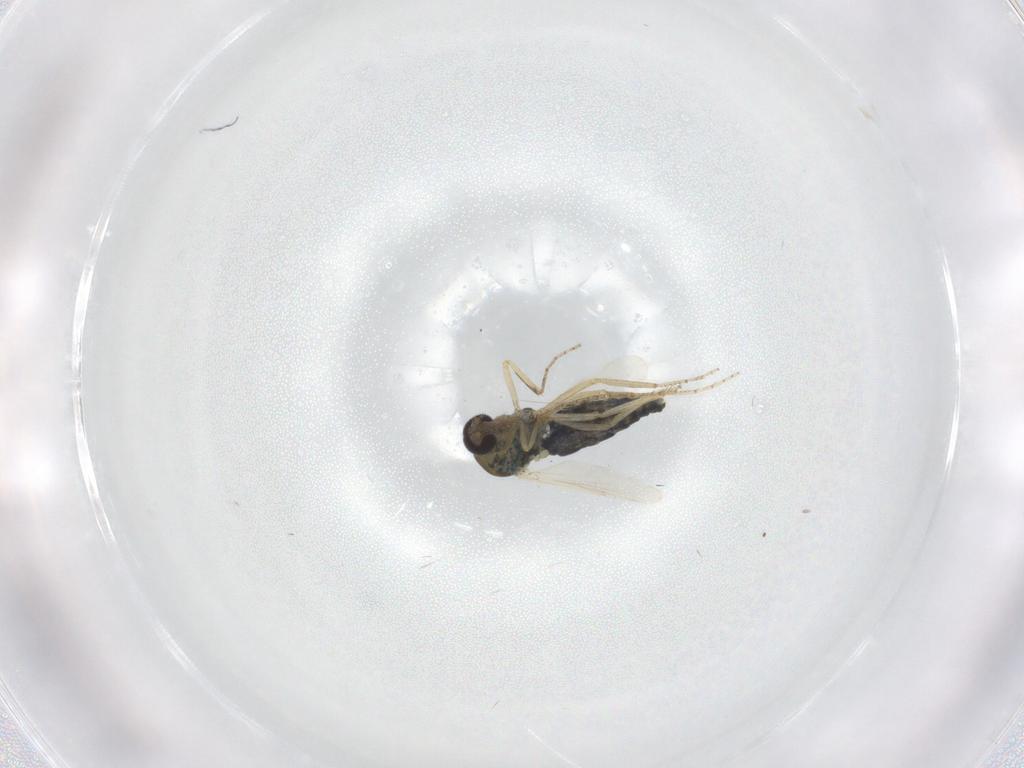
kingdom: Animalia
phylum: Arthropoda
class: Insecta
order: Diptera
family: Ceratopogonidae
